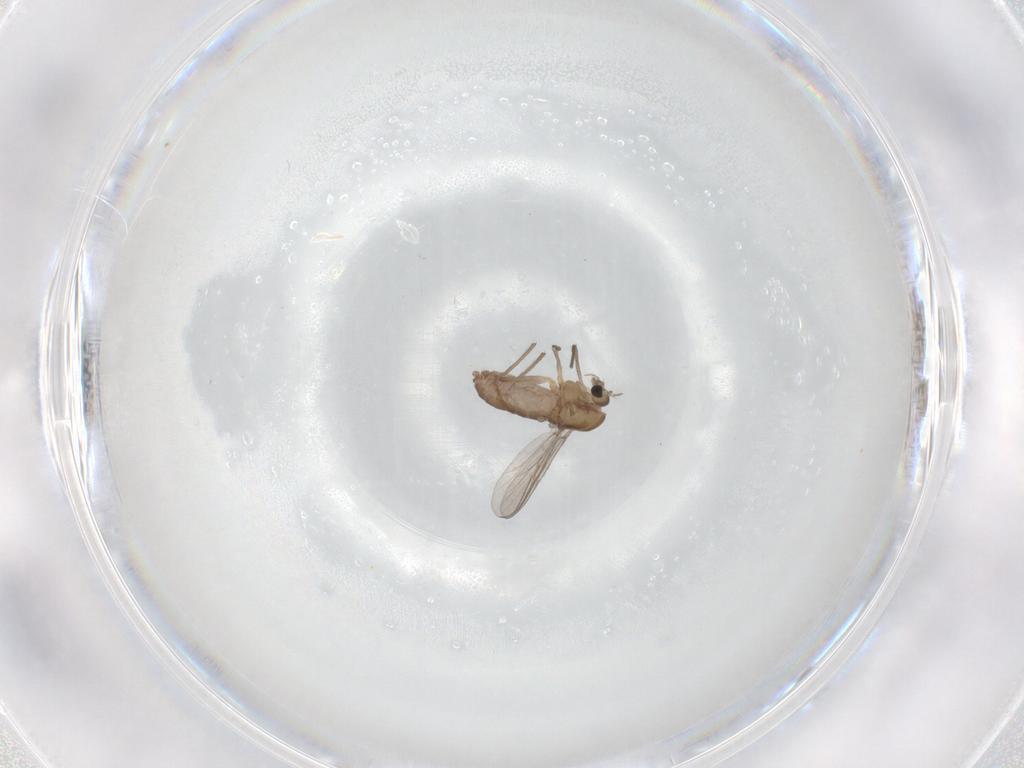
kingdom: Animalia
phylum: Arthropoda
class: Insecta
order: Diptera
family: Chironomidae
